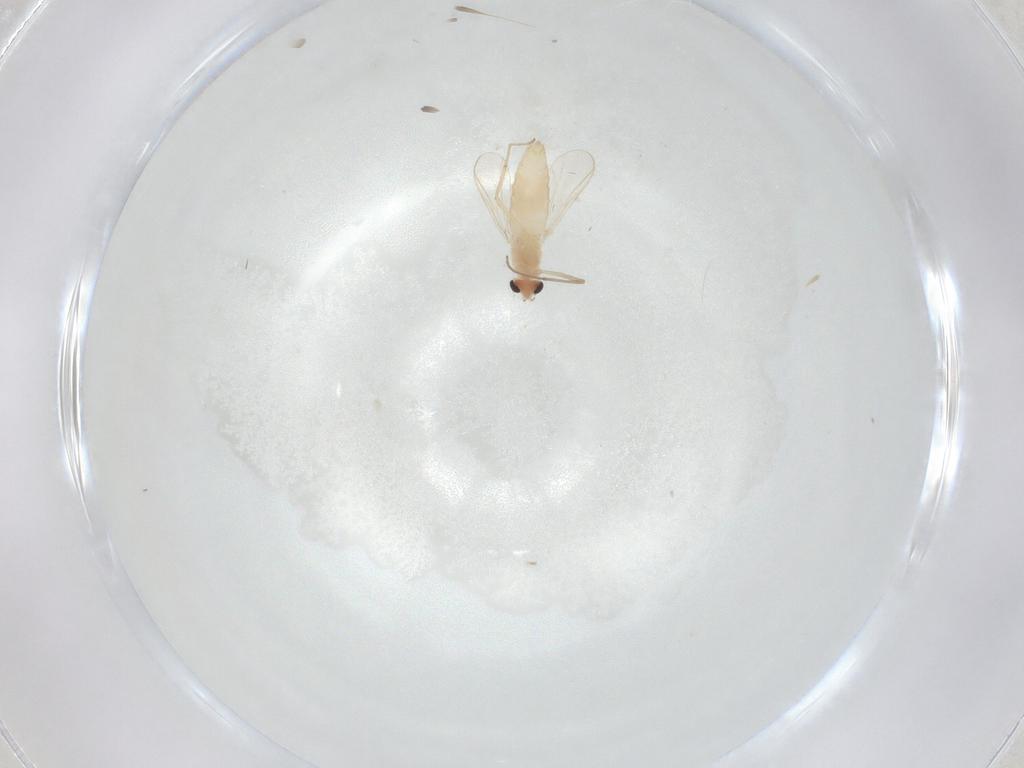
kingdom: Animalia
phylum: Arthropoda
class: Insecta
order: Diptera
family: Chironomidae
